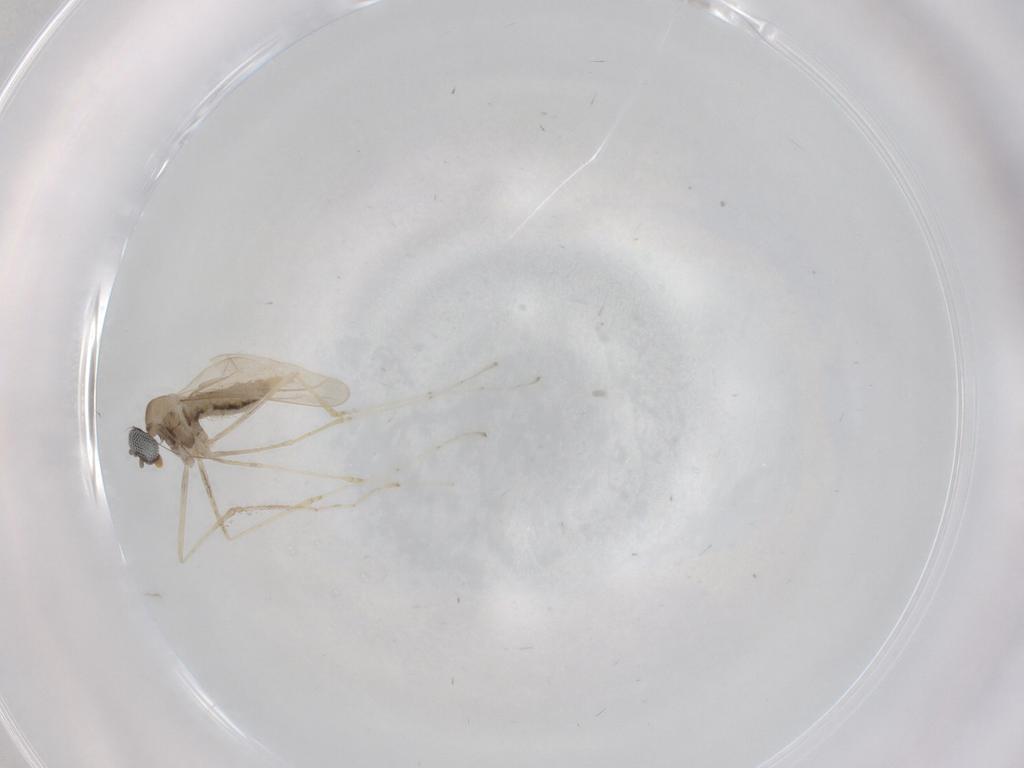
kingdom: Animalia
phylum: Arthropoda
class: Insecta
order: Diptera
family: Cecidomyiidae
